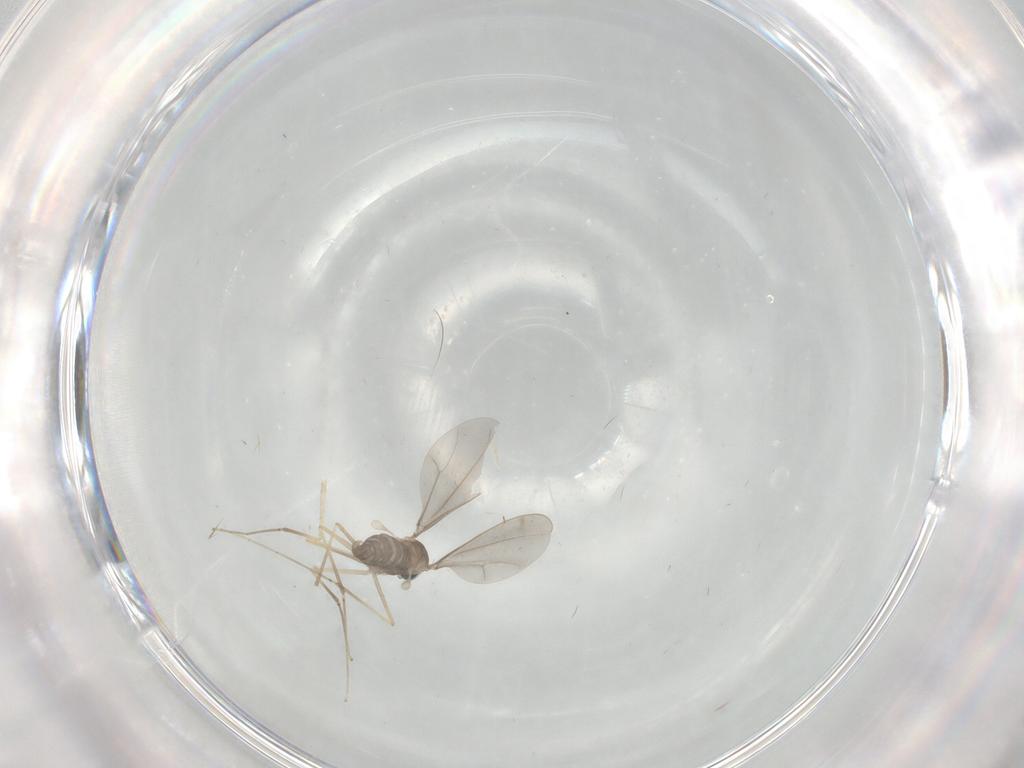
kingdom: Animalia
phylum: Arthropoda
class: Insecta
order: Diptera
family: Cecidomyiidae
